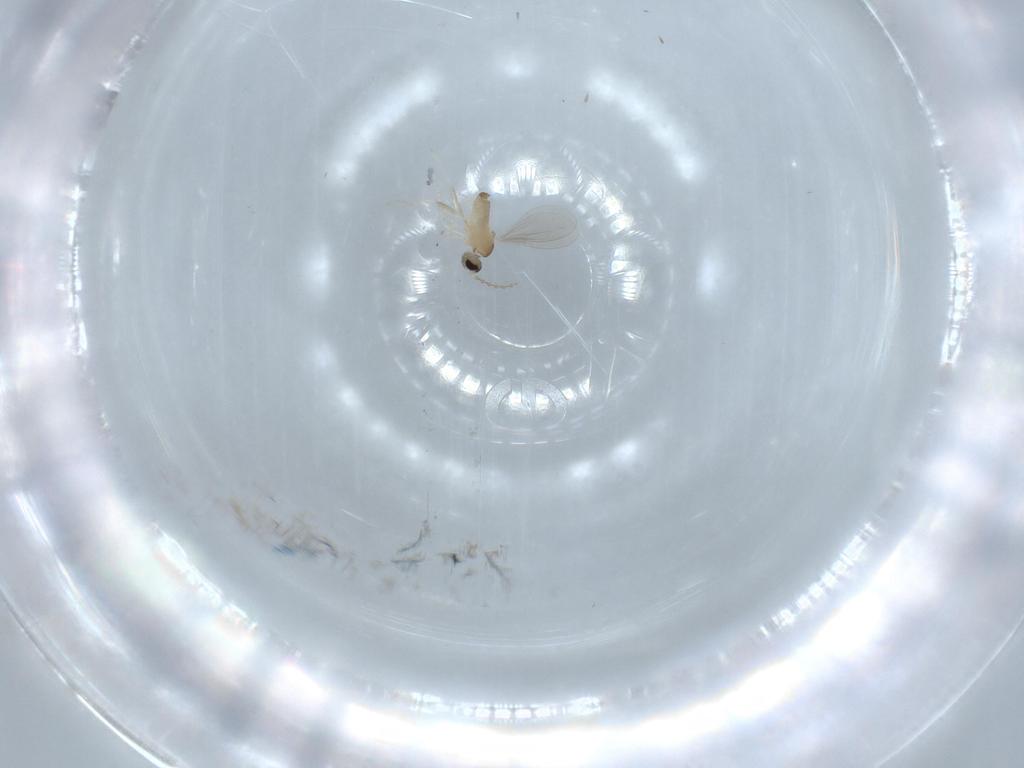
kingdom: Animalia
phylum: Arthropoda
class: Insecta
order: Diptera
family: Cecidomyiidae
